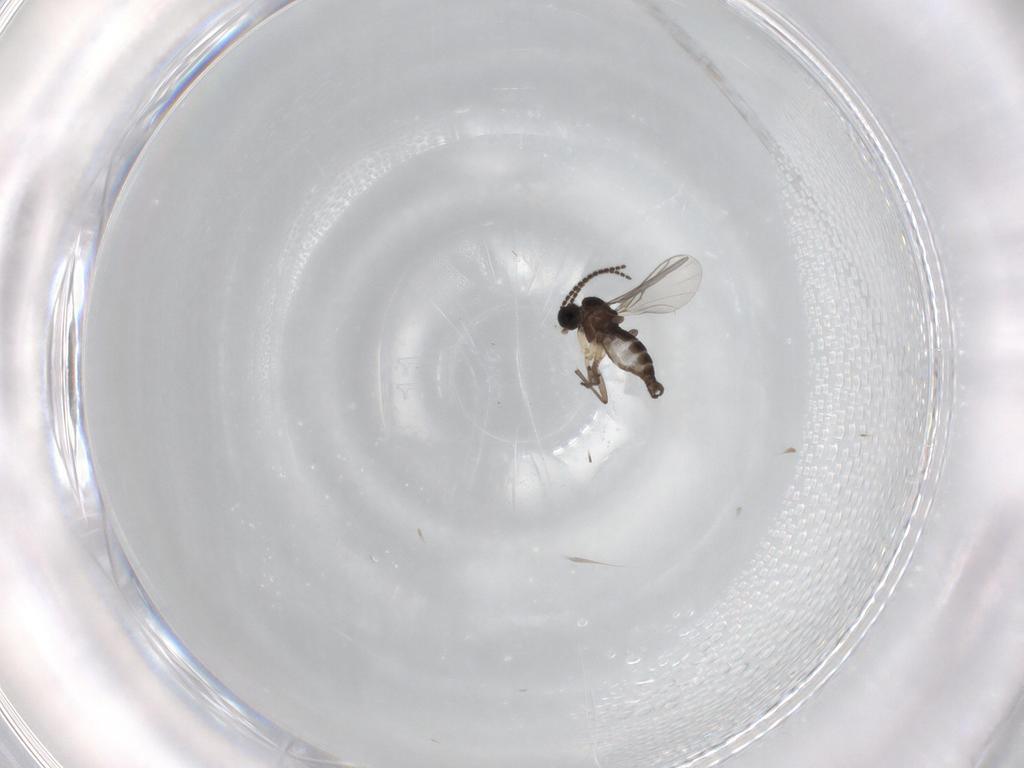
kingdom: Animalia
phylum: Arthropoda
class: Insecta
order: Diptera
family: Sciaridae
